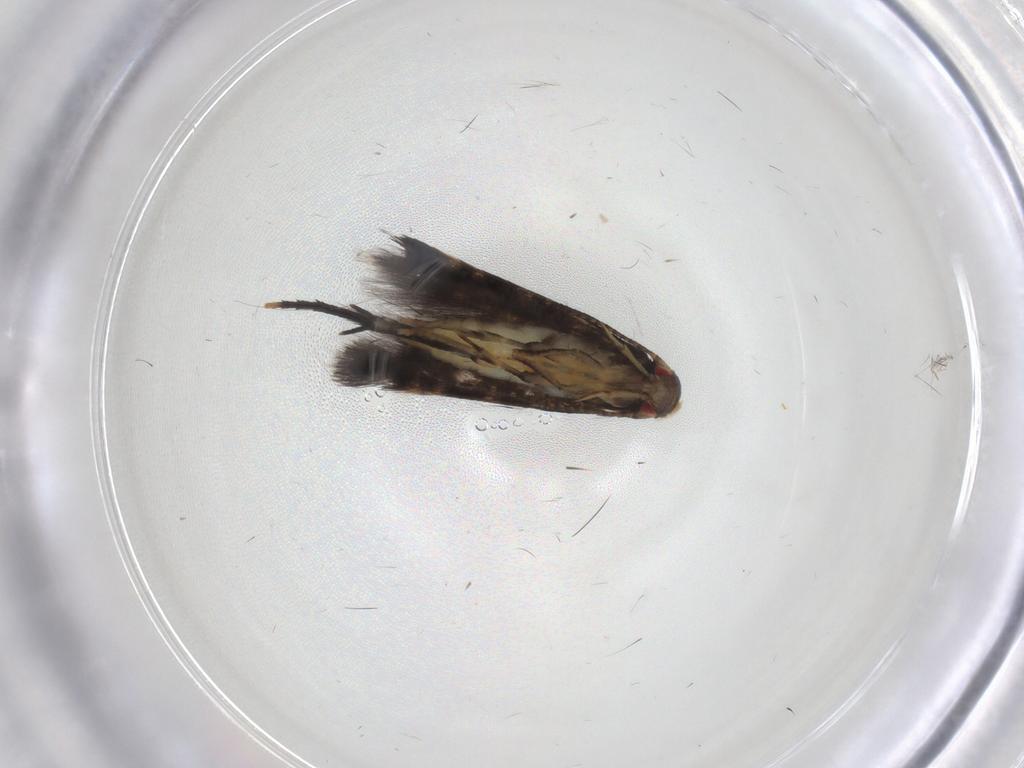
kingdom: Animalia
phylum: Arthropoda
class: Insecta
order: Lepidoptera
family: Momphidae
